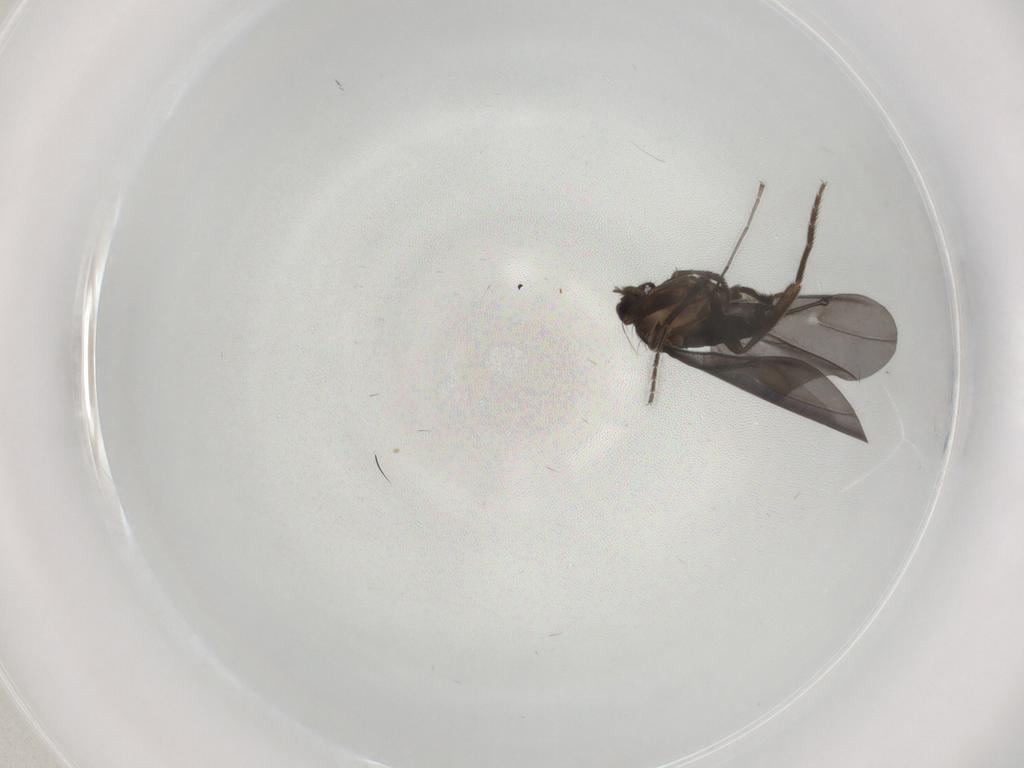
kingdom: Animalia
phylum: Arthropoda
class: Insecta
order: Diptera
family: Phoridae
